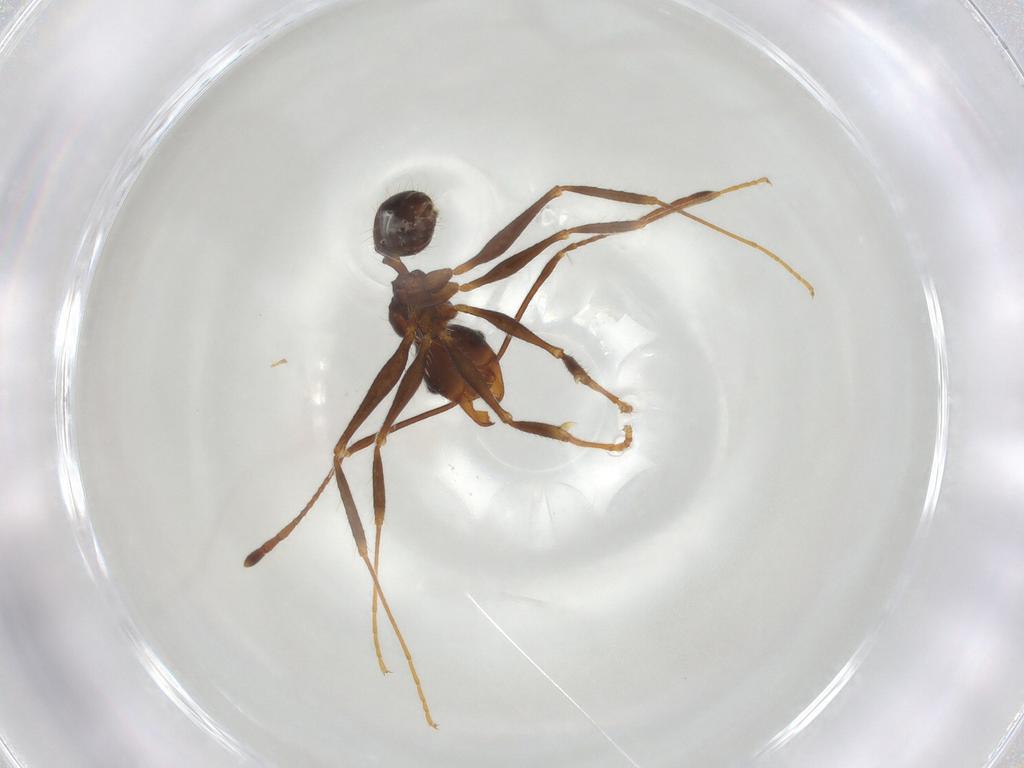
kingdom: Animalia
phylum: Arthropoda
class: Insecta
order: Hymenoptera
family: Formicidae
